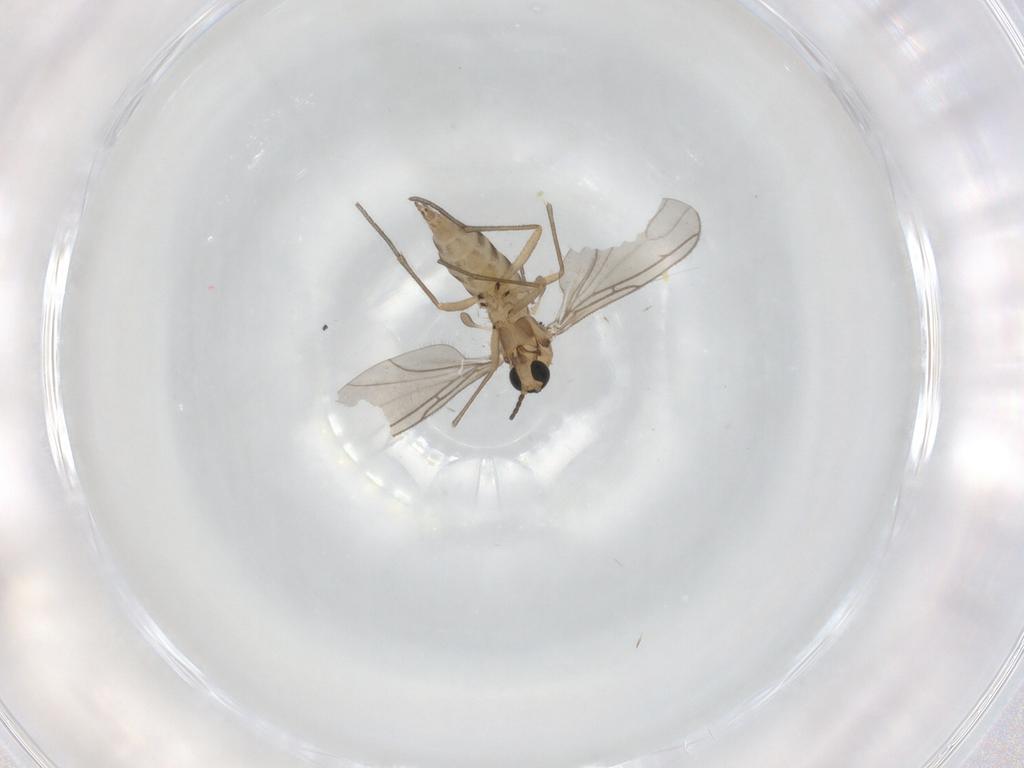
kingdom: Animalia
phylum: Arthropoda
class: Insecta
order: Diptera
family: Sciaridae
